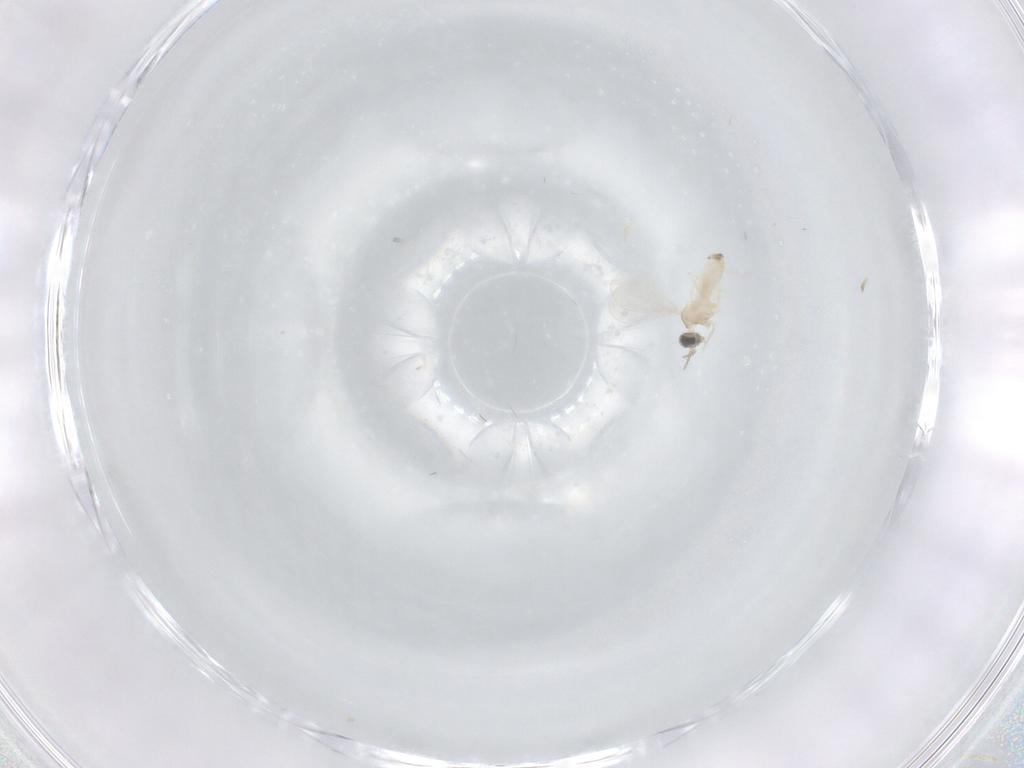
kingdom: Animalia
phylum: Arthropoda
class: Insecta
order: Diptera
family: Cecidomyiidae
